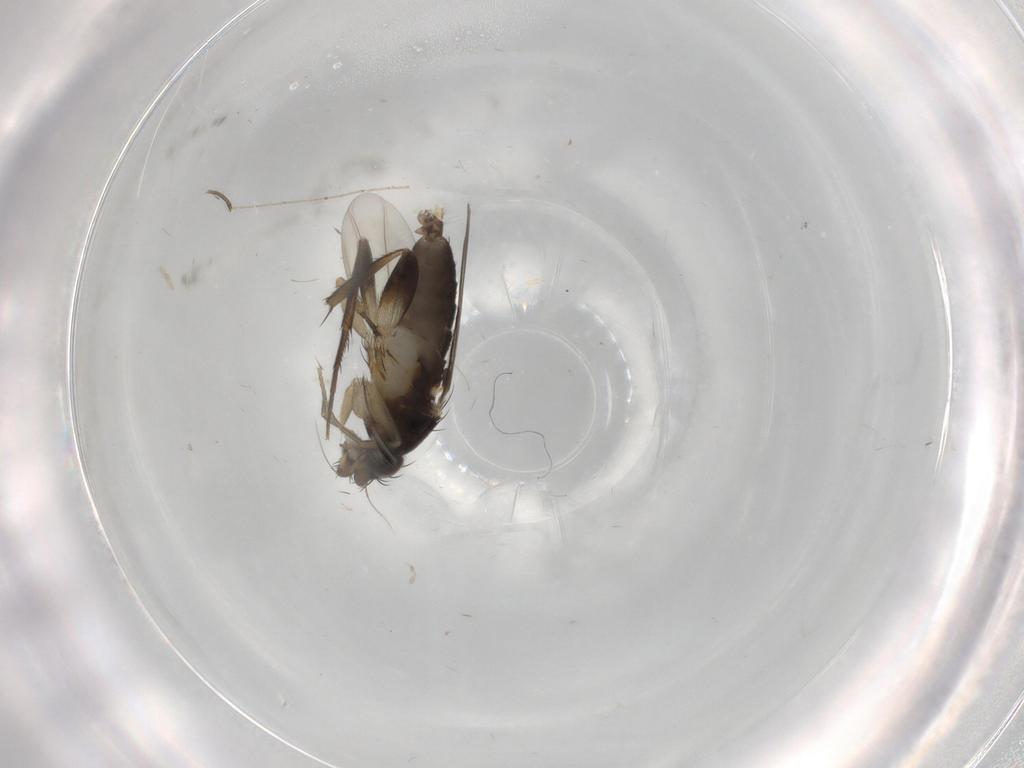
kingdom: Animalia
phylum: Arthropoda
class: Insecta
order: Diptera
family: Phoridae
